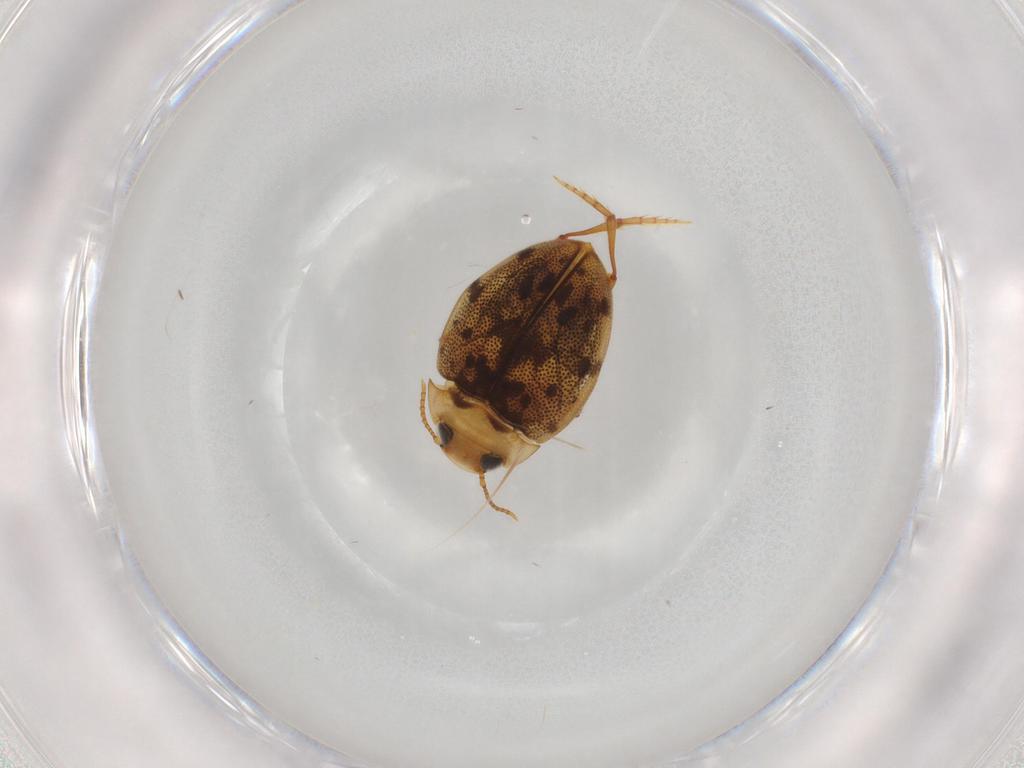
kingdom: Animalia
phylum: Arthropoda
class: Insecta
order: Coleoptera
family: Dytiscidae
